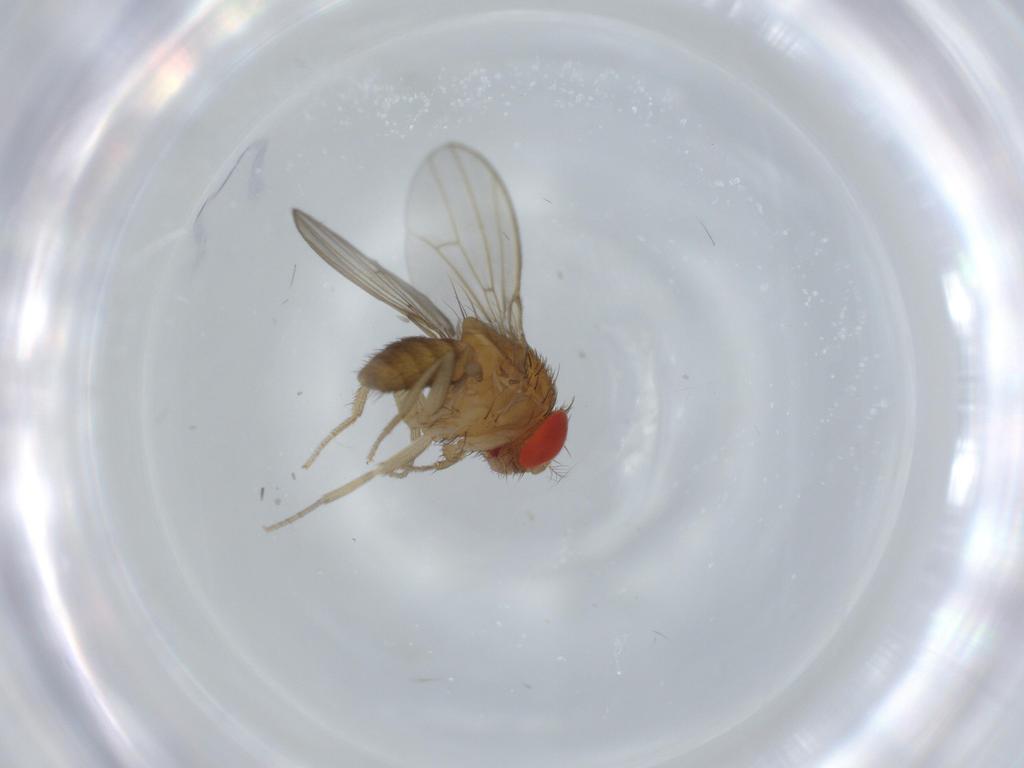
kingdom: Animalia
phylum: Arthropoda
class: Insecta
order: Diptera
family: Drosophilidae
